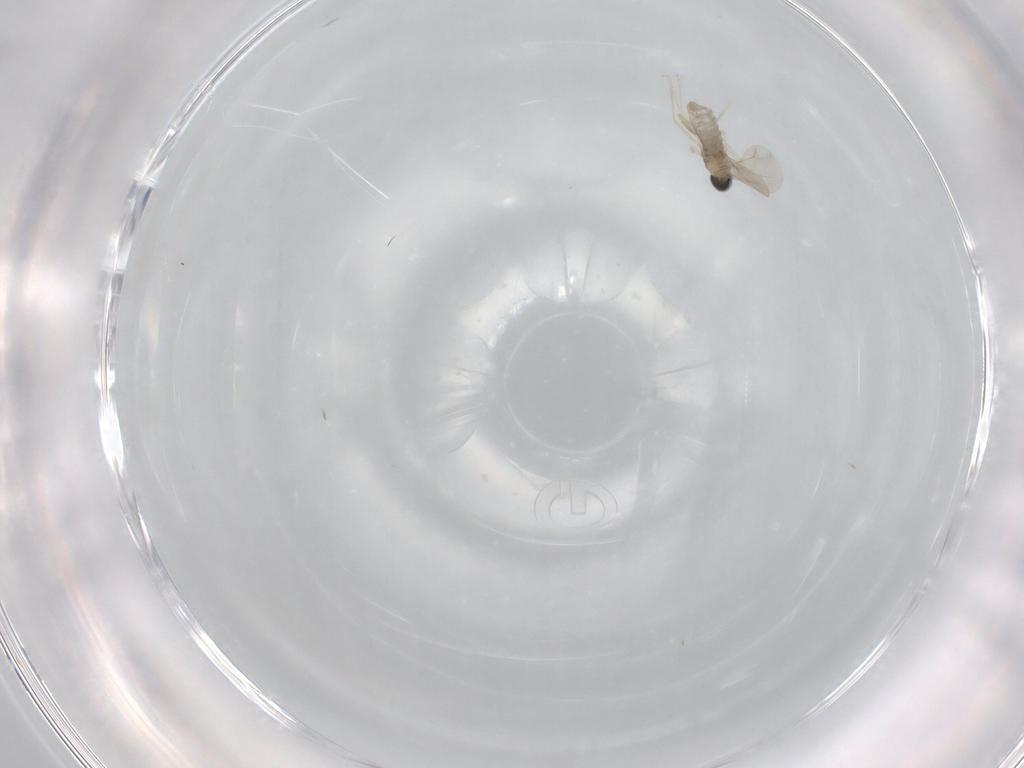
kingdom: Animalia
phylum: Arthropoda
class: Insecta
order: Diptera
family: Cecidomyiidae
